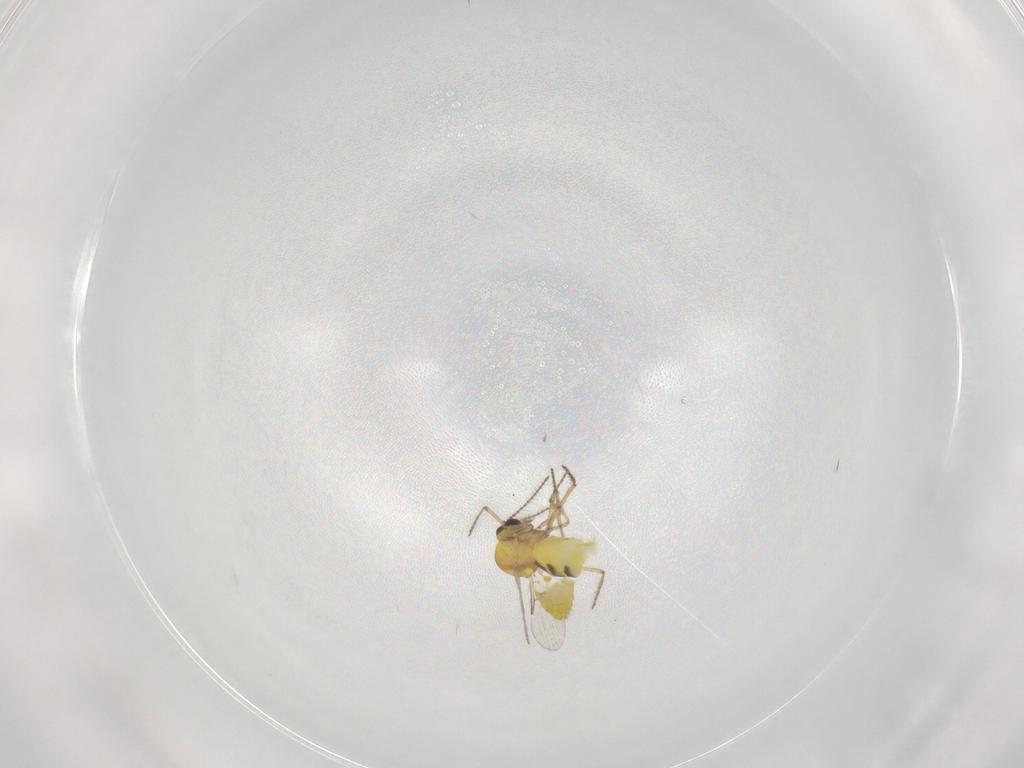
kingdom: Animalia
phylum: Arthropoda
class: Insecta
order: Diptera
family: Ceratopogonidae
